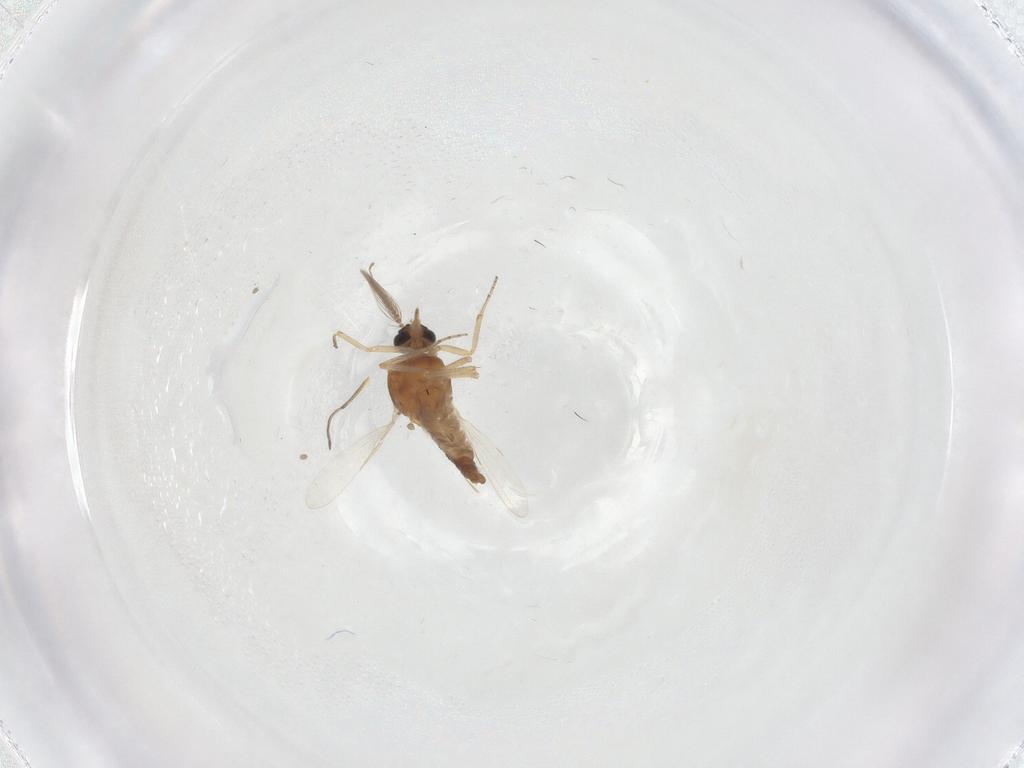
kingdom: Animalia
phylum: Arthropoda
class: Insecta
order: Diptera
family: Ceratopogonidae
